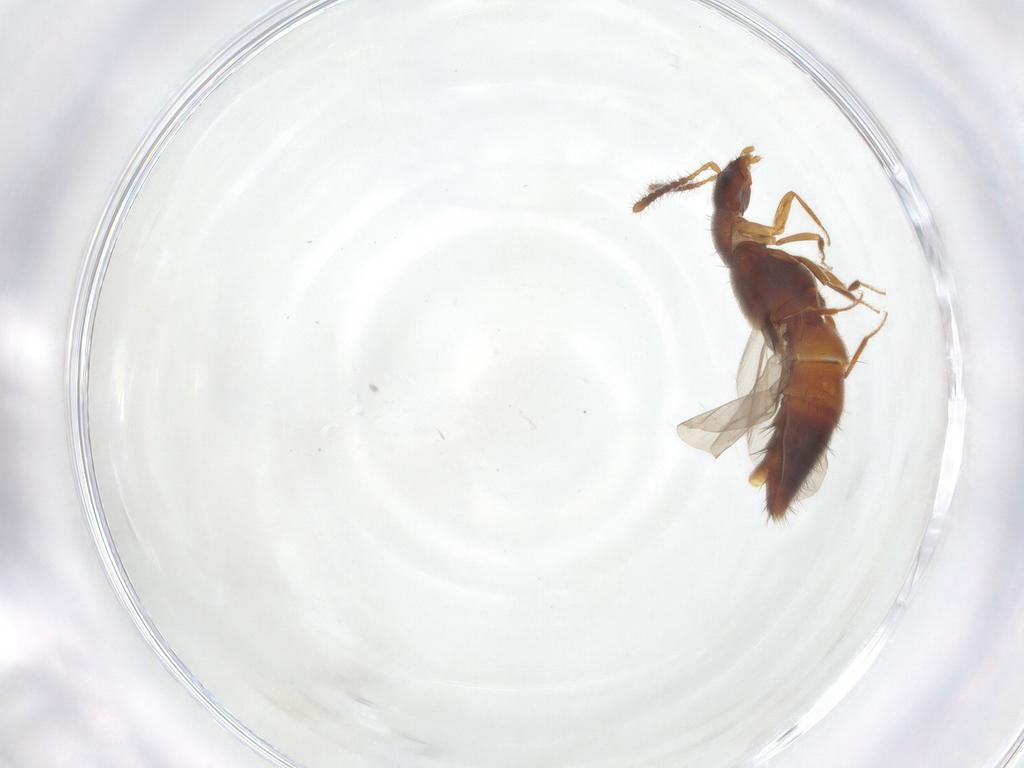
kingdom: Animalia
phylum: Arthropoda
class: Insecta
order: Coleoptera
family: Staphylinidae
